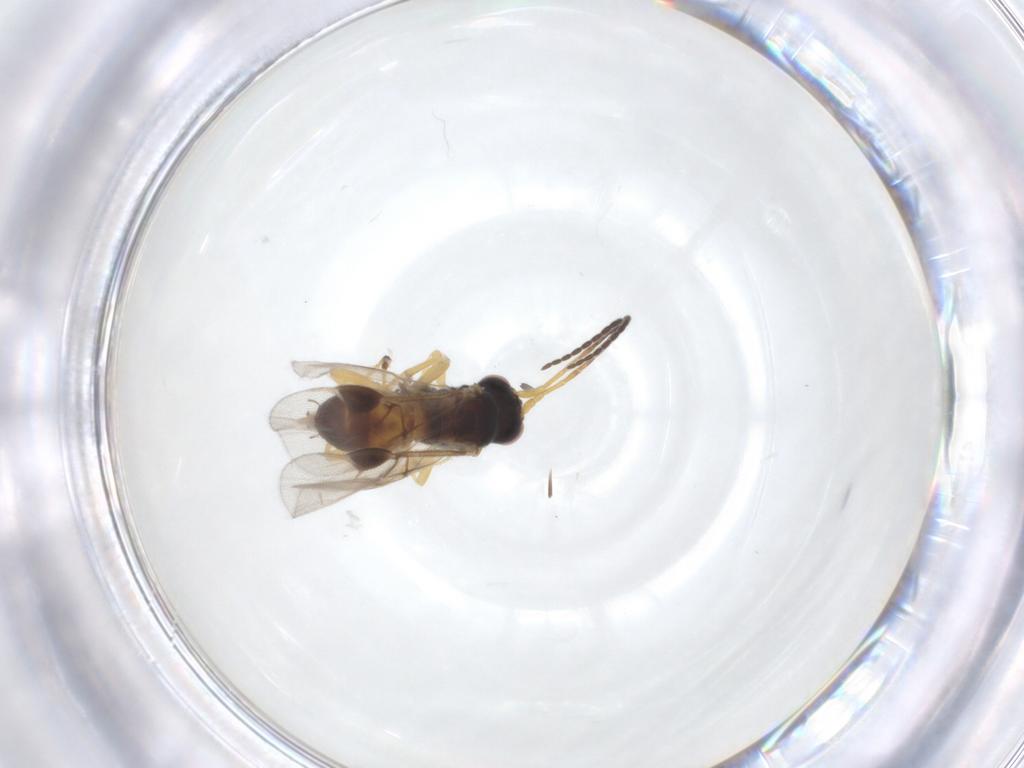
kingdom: Animalia
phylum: Arthropoda
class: Insecta
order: Hymenoptera
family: Braconidae
